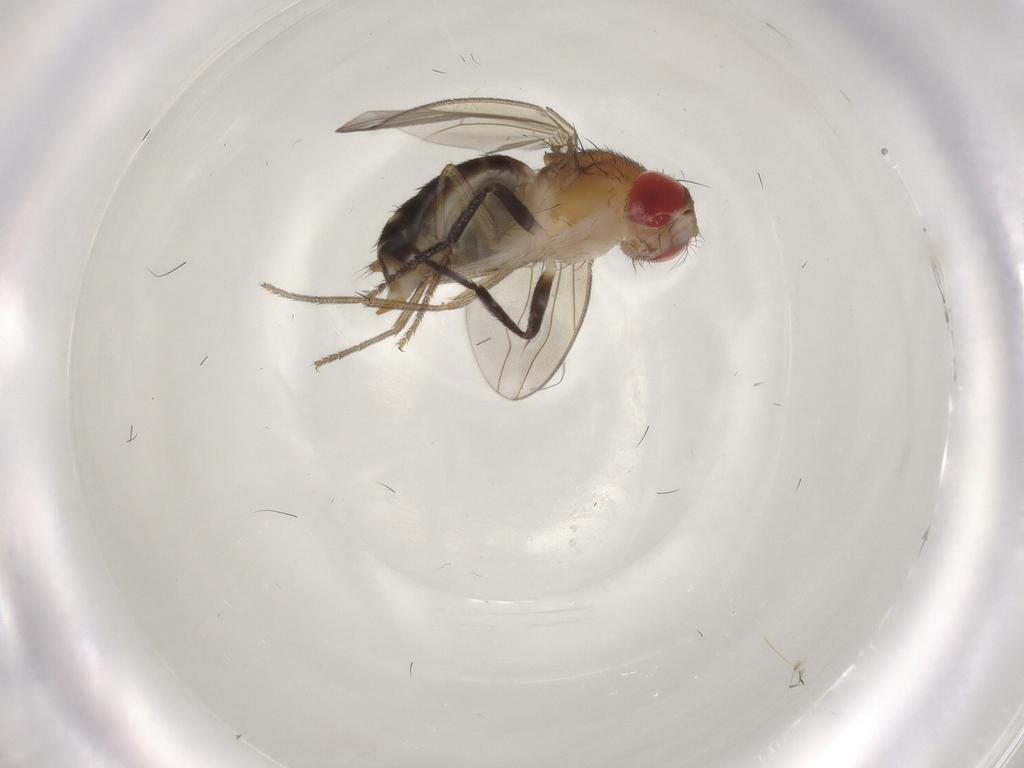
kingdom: Animalia
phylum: Arthropoda
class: Insecta
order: Diptera
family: Drosophilidae
